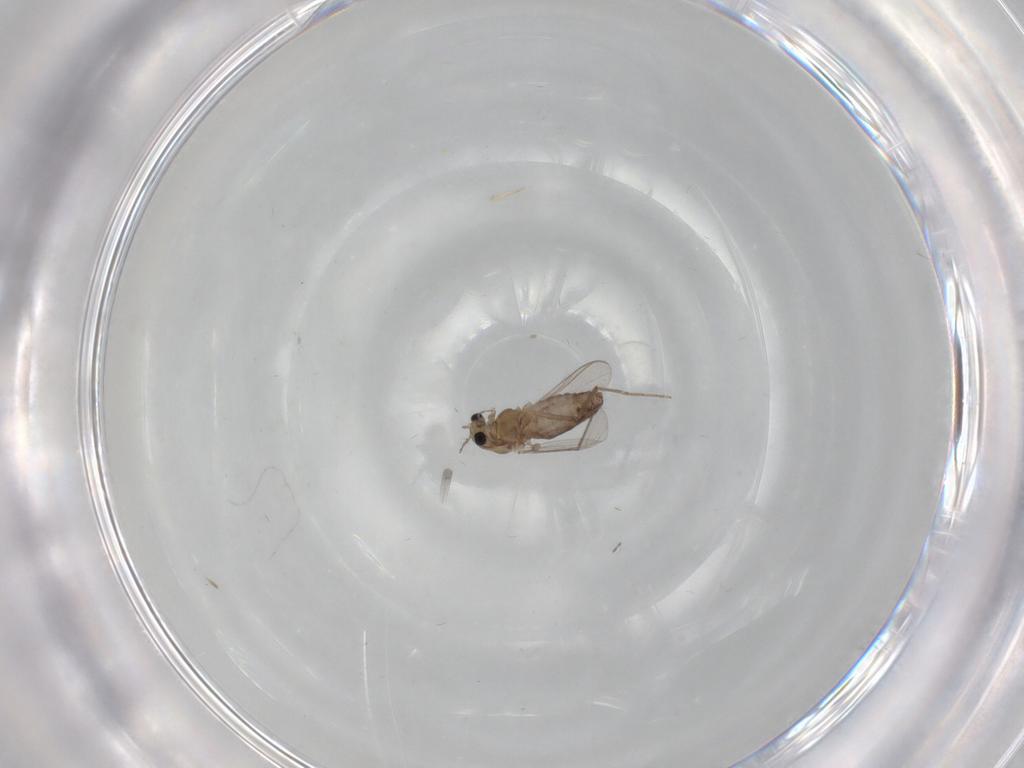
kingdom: Animalia
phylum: Arthropoda
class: Insecta
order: Diptera
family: Chironomidae
